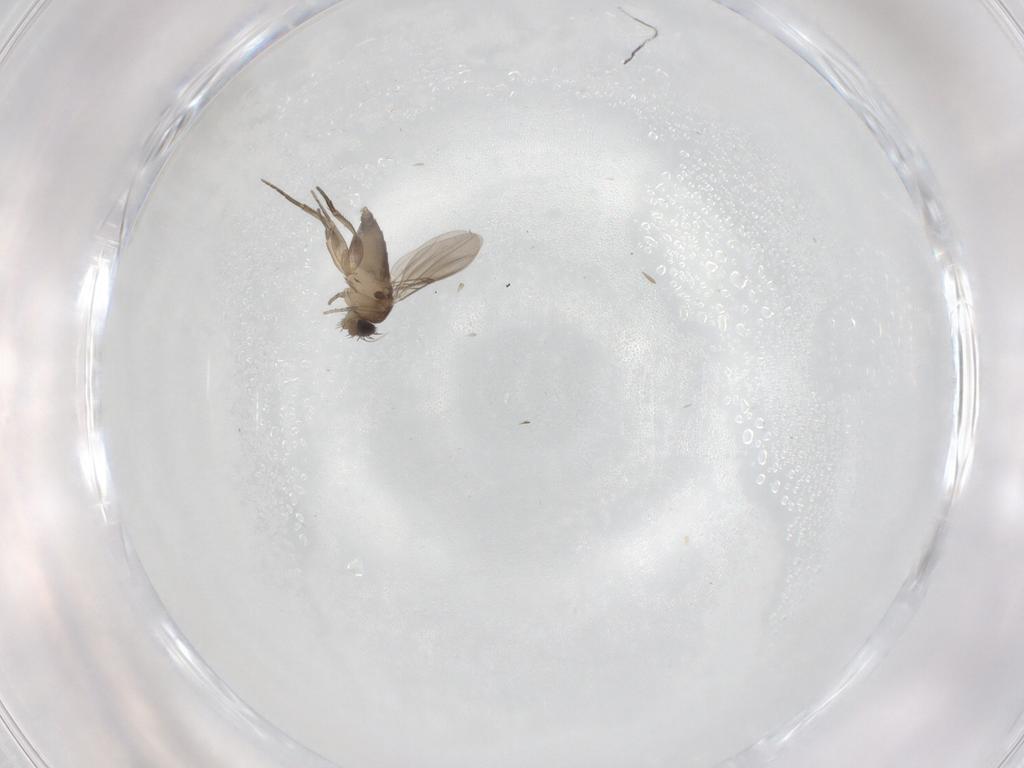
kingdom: Animalia
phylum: Arthropoda
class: Insecta
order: Diptera
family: Phoridae
